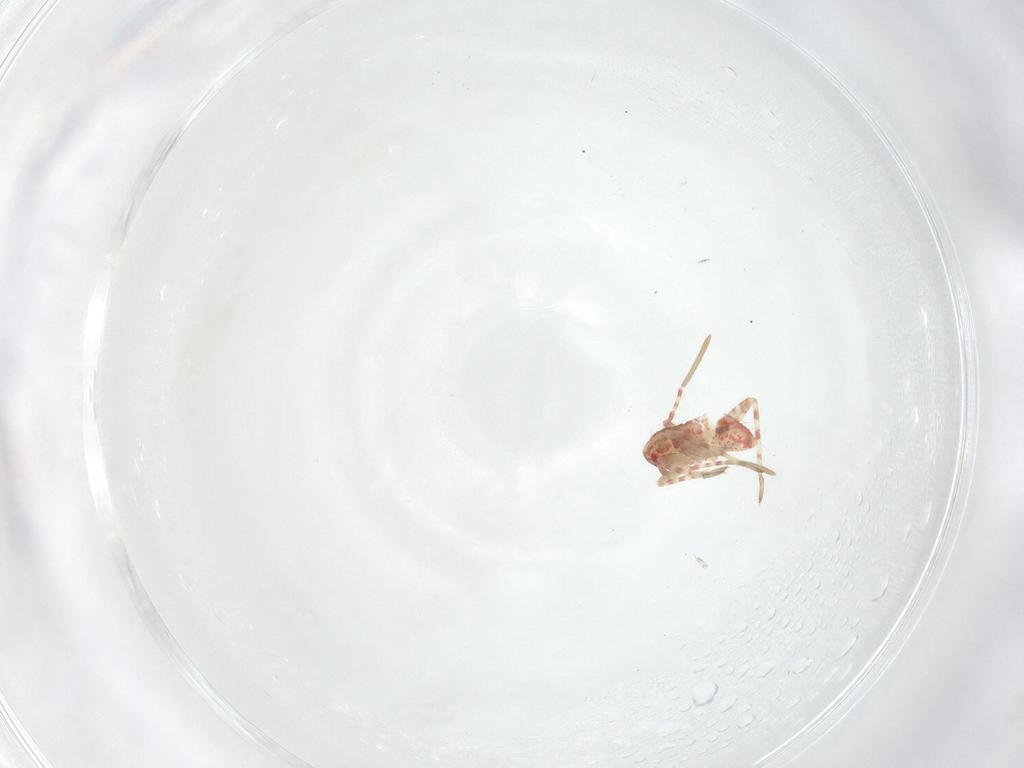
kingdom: Animalia
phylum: Arthropoda
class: Insecta
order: Hemiptera
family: Miridae
